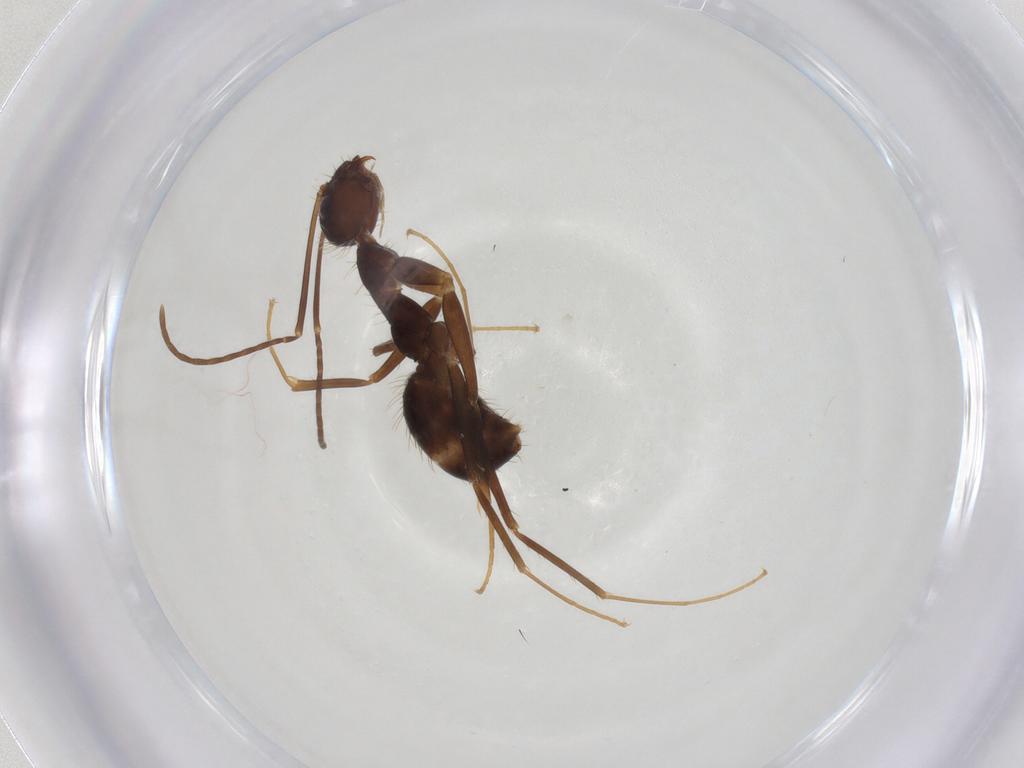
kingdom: Animalia
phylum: Arthropoda
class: Insecta
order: Hymenoptera
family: Formicidae
